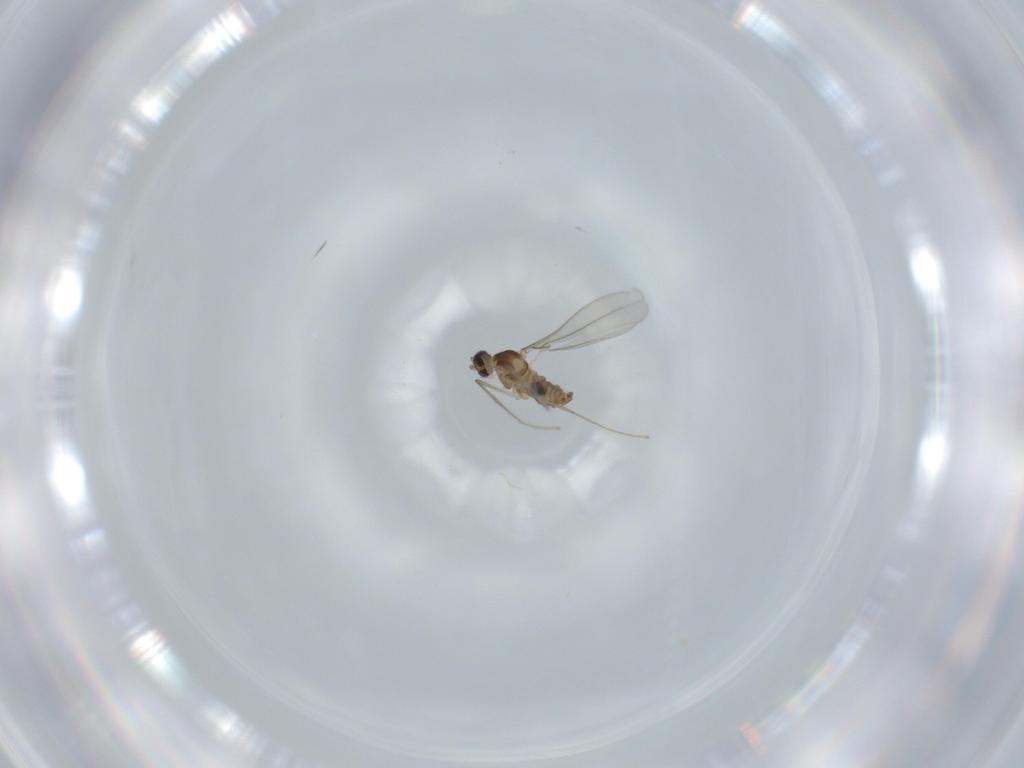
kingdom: Animalia
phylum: Arthropoda
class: Insecta
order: Diptera
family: Cecidomyiidae
